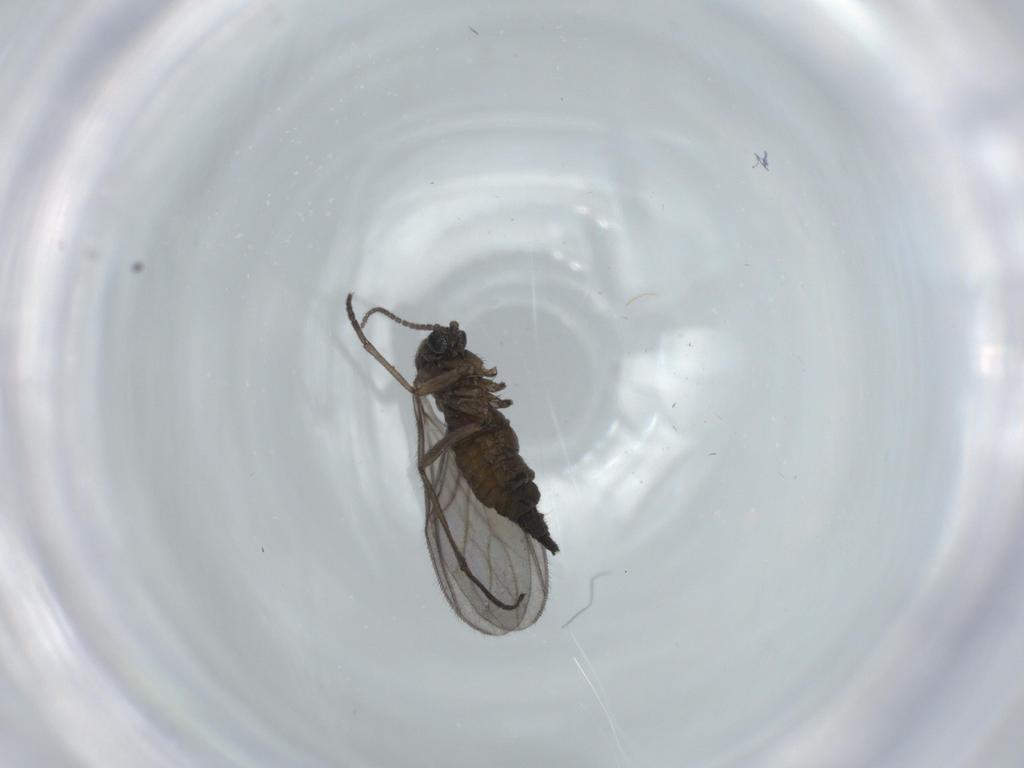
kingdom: Animalia
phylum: Arthropoda
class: Insecta
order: Diptera
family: Sciaridae
